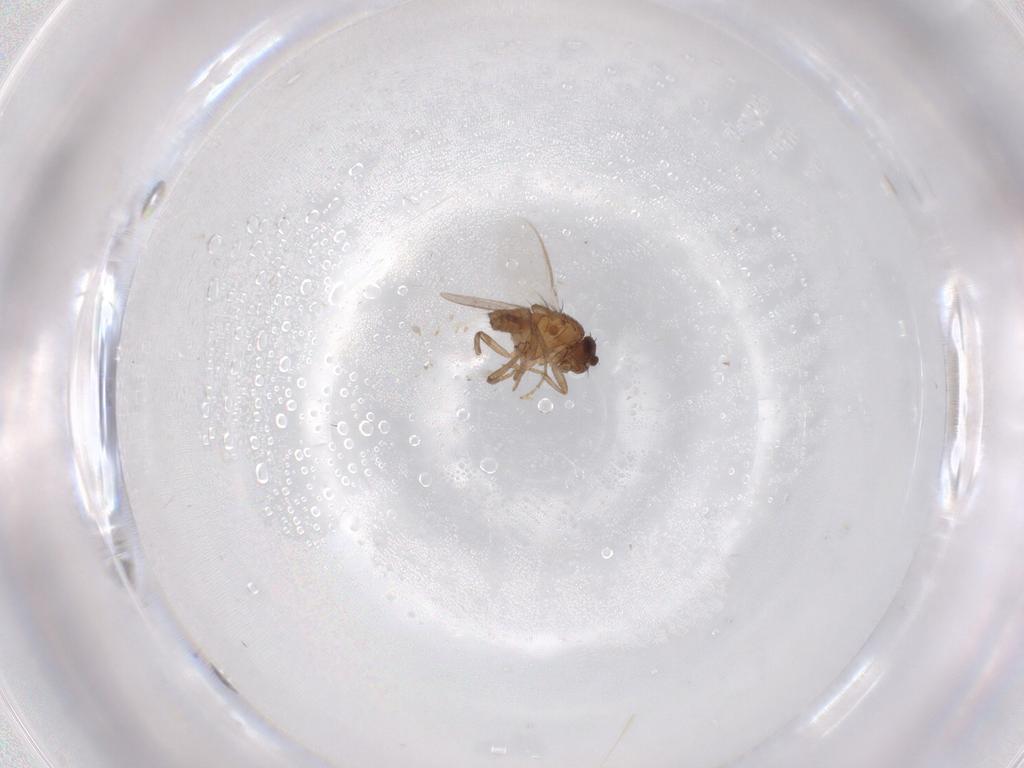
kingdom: Animalia
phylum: Arthropoda
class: Insecta
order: Diptera
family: Sphaeroceridae
